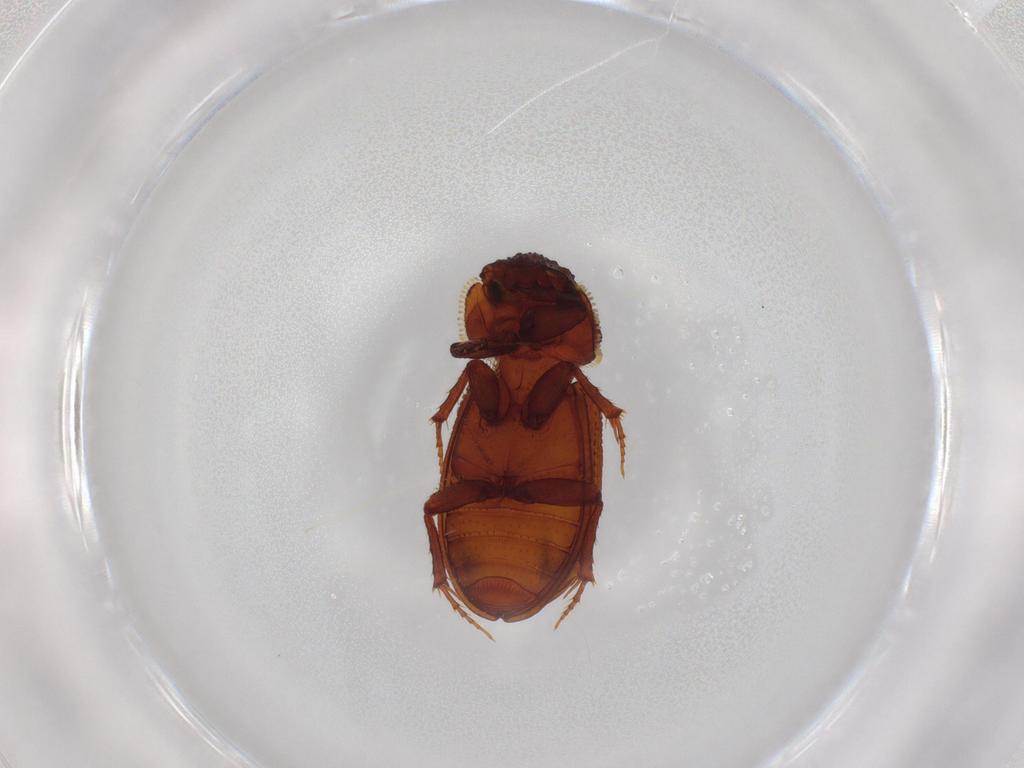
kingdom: Animalia
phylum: Arthropoda
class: Insecta
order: Coleoptera
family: Scarabaeidae
